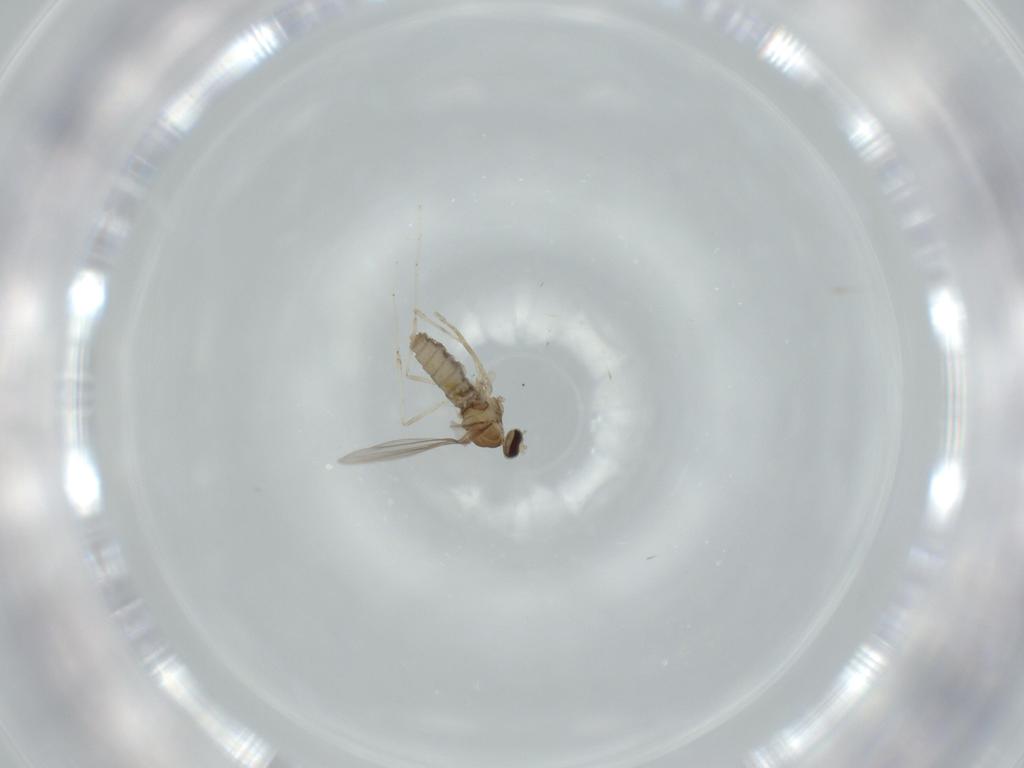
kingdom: Animalia
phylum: Arthropoda
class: Insecta
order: Diptera
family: Cecidomyiidae
